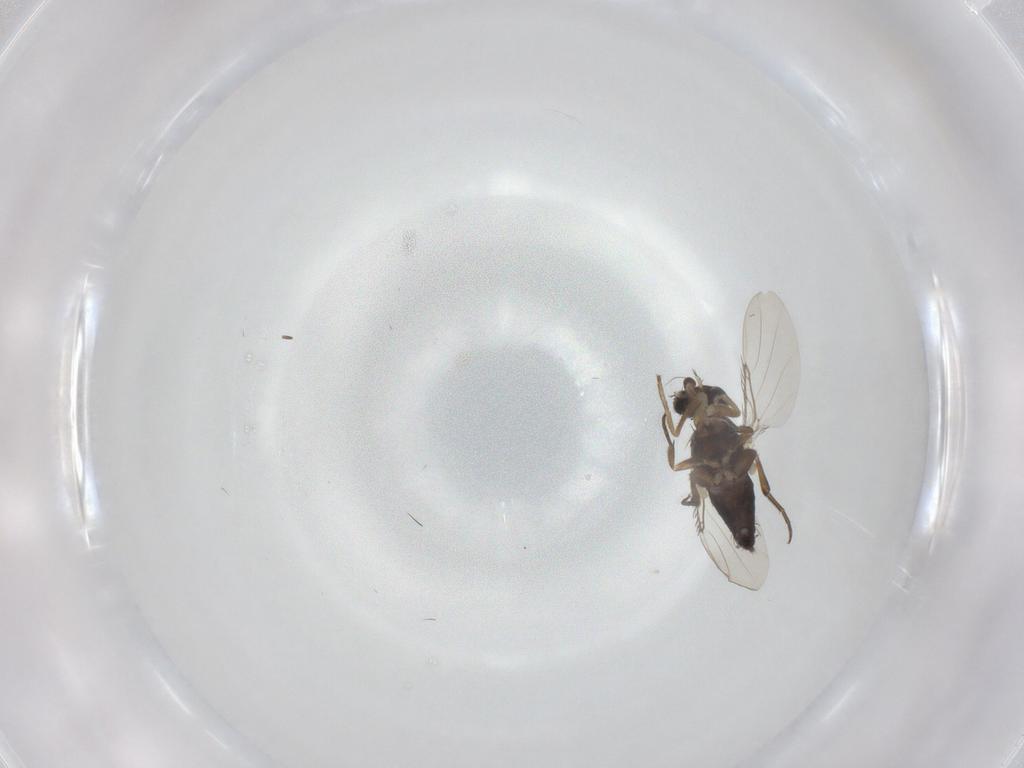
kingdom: Animalia
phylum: Arthropoda
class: Insecta
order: Diptera
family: Phoridae
